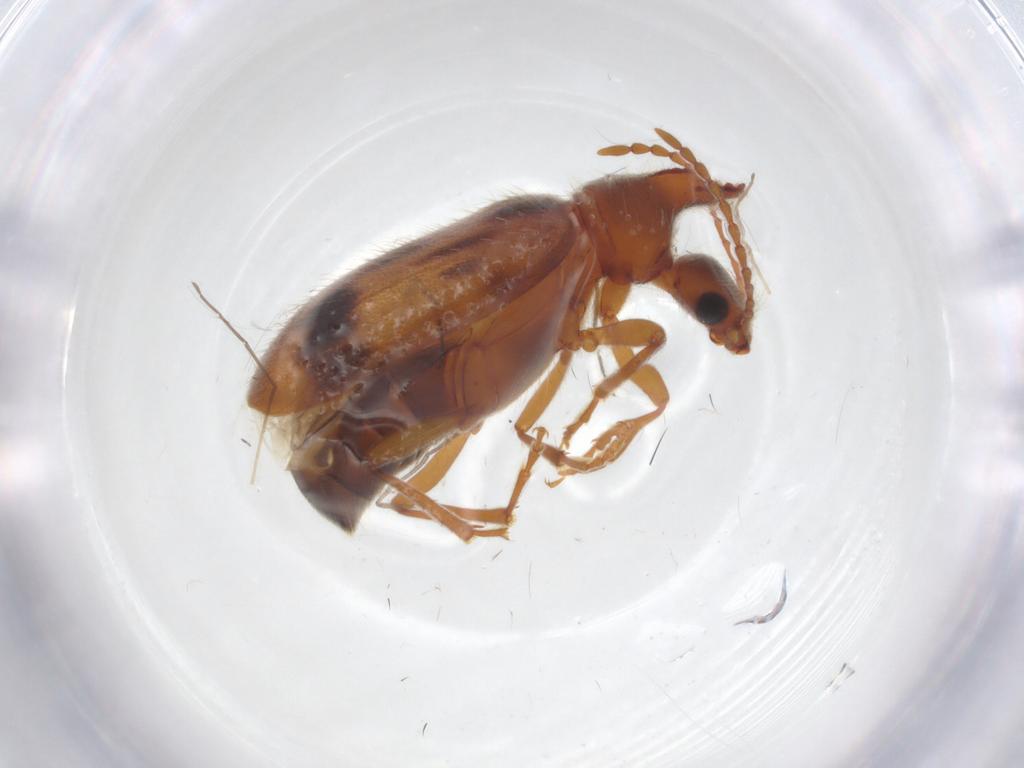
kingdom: Animalia
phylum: Arthropoda
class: Insecta
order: Coleoptera
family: Anthicidae
